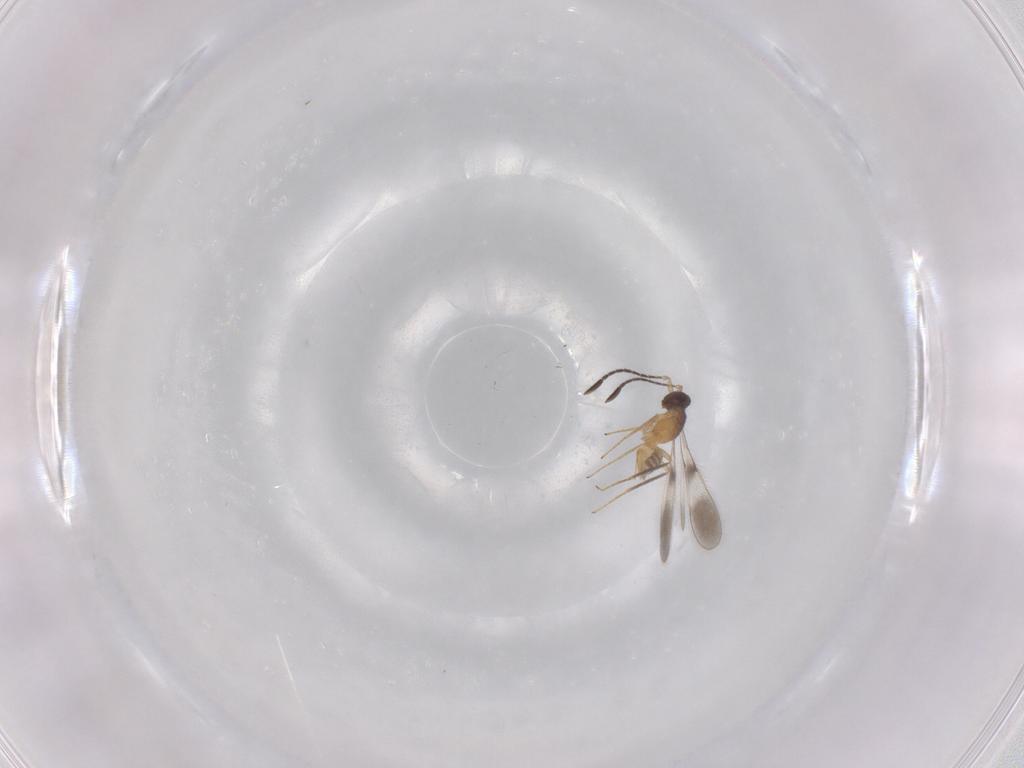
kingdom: Animalia
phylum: Arthropoda
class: Insecta
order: Hymenoptera
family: Mymaridae
